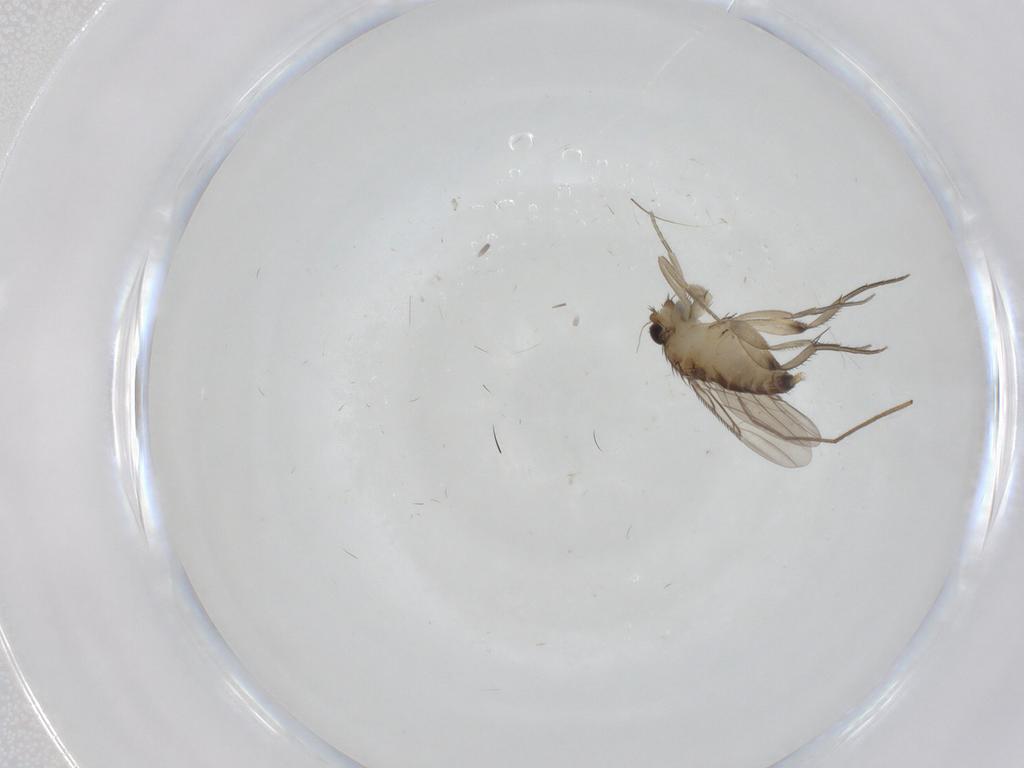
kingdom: Animalia
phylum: Arthropoda
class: Insecta
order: Diptera
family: Chironomidae
